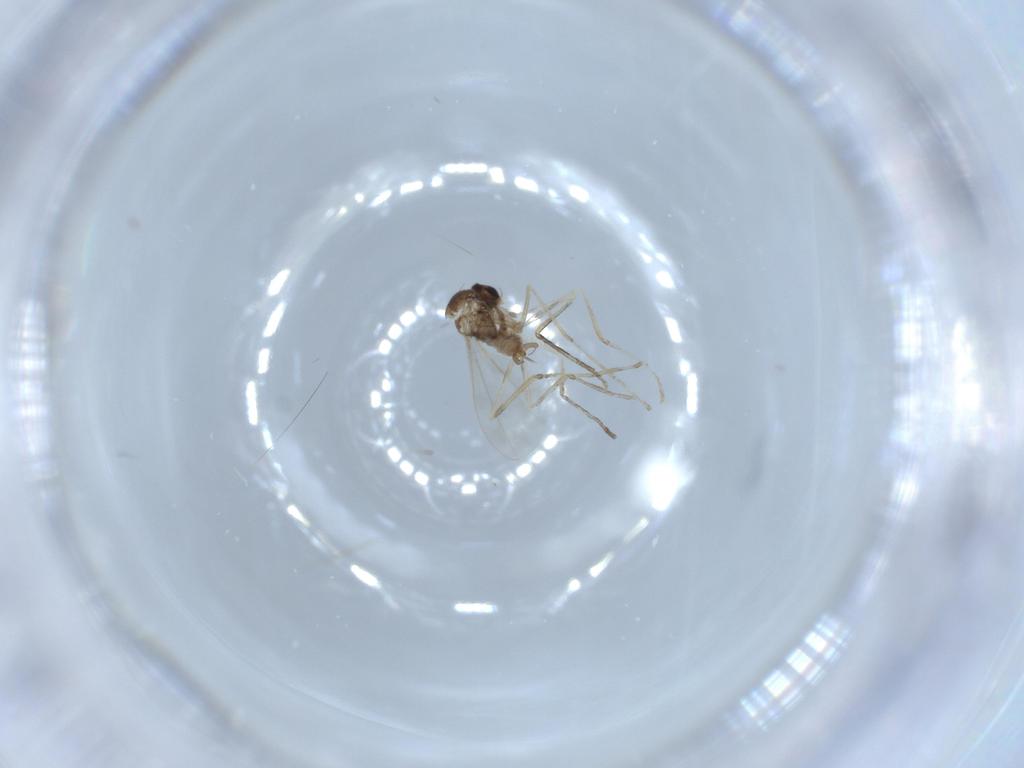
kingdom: Animalia
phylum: Arthropoda
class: Insecta
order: Diptera
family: Cecidomyiidae
